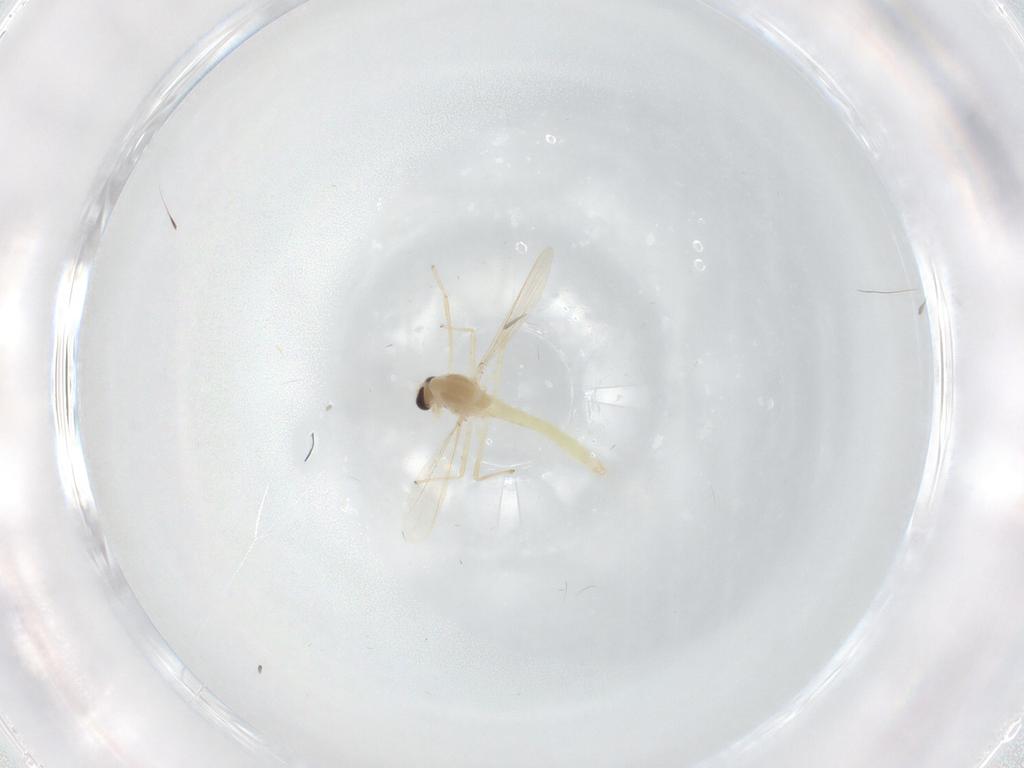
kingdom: Animalia
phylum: Arthropoda
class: Insecta
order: Diptera
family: Chironomidae
